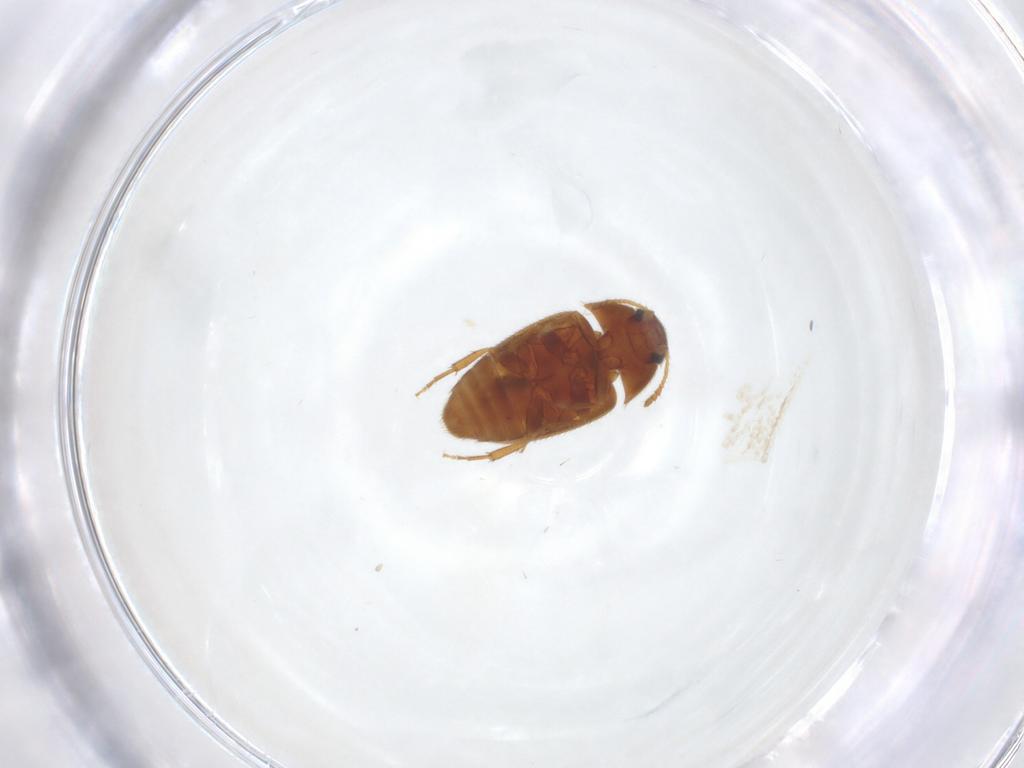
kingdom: Animalia
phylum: Arthropoda
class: Insecta
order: Coleoptera
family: Mycetophagidae
